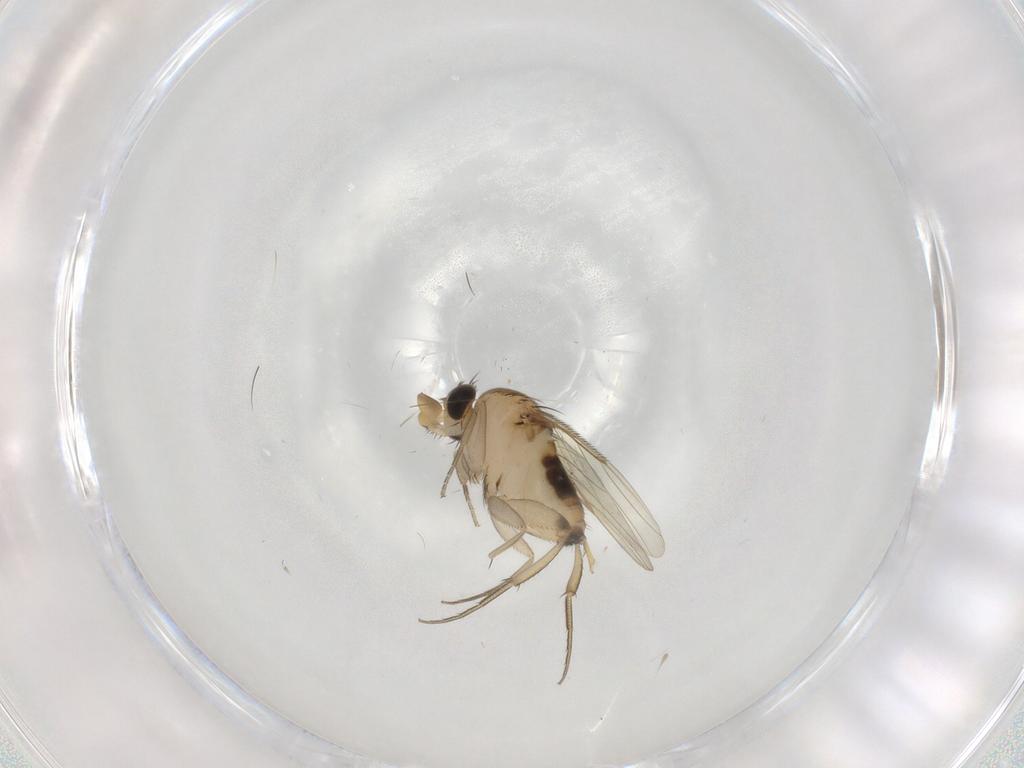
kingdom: Animalia
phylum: Arthropoda
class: Insecta
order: Diptera
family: Phoridae
